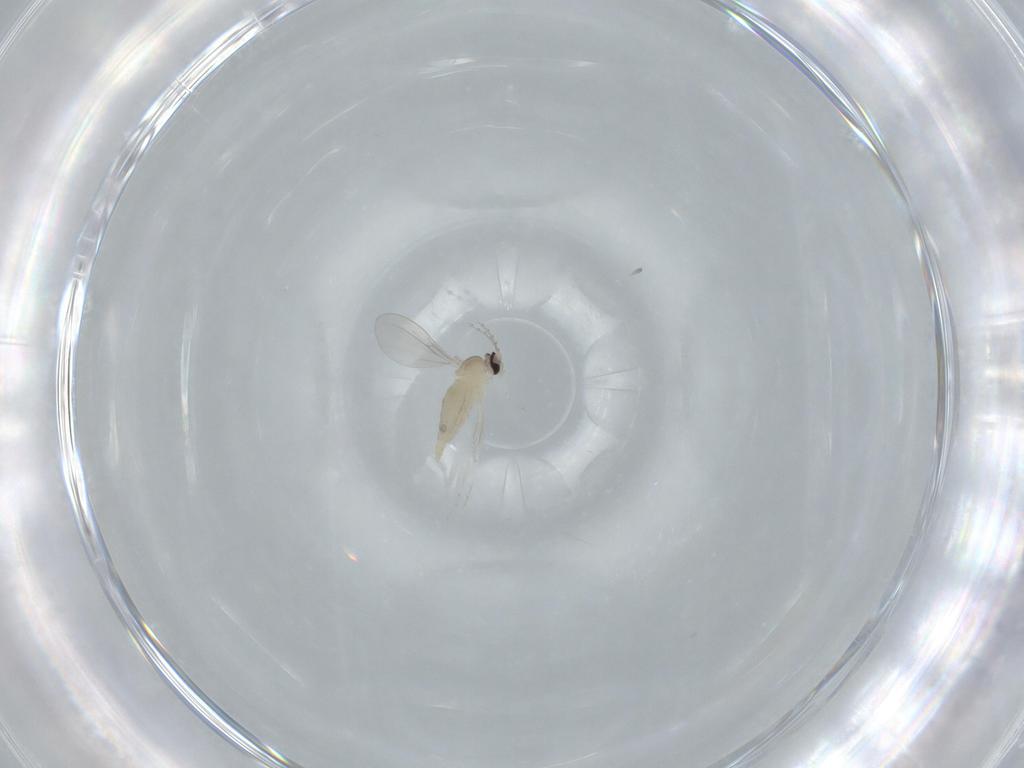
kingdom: Animalia
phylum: Arthropoda
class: Insecta
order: Diptera
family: Cecidomyiidae
